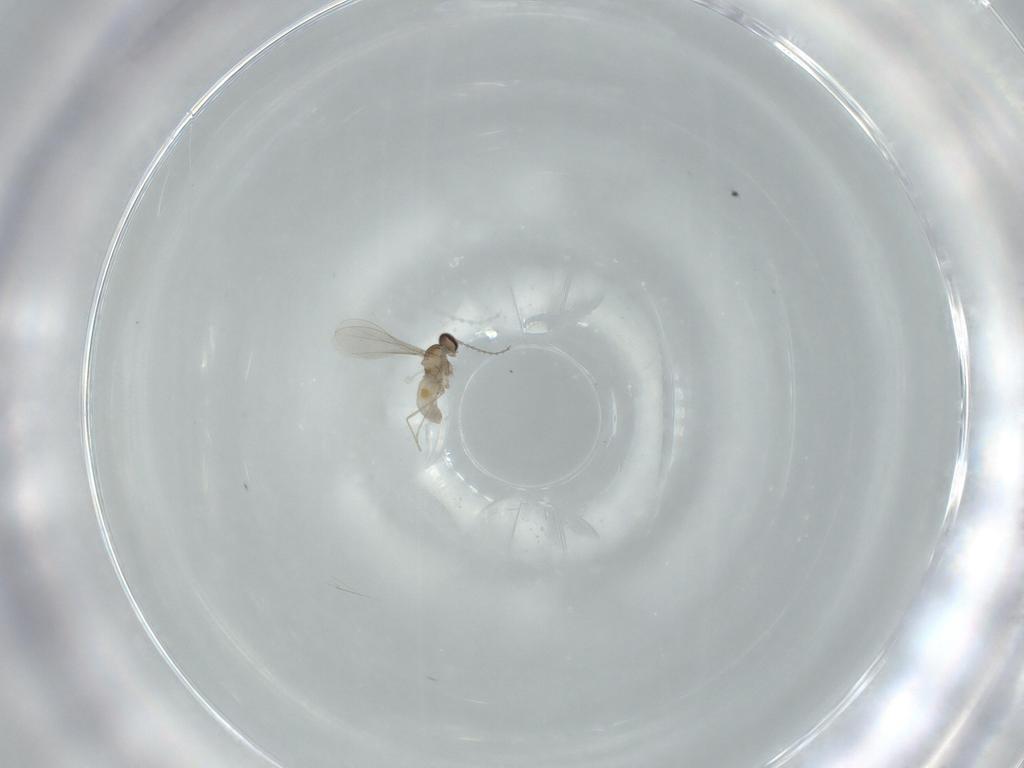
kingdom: Animalia
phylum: Arthropoda
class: Insecta
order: Diptera
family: Cecidomyiidae
